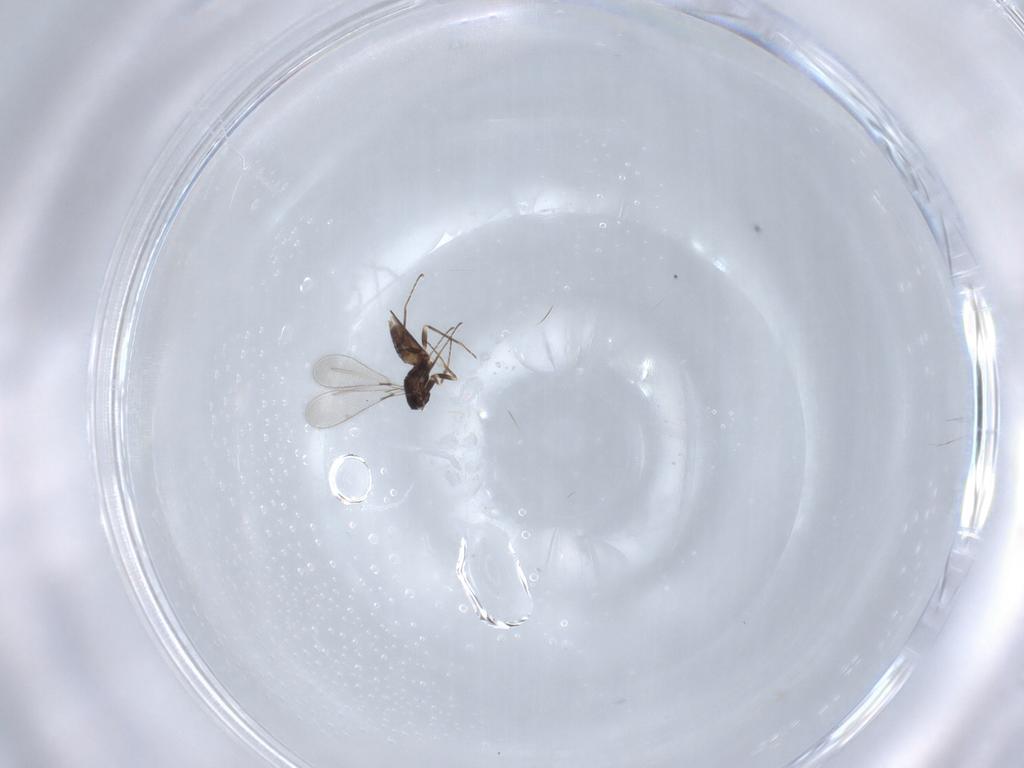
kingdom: Animalia
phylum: Arthropoda
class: Insecta
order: Hymenoptera
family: Mymaridae
